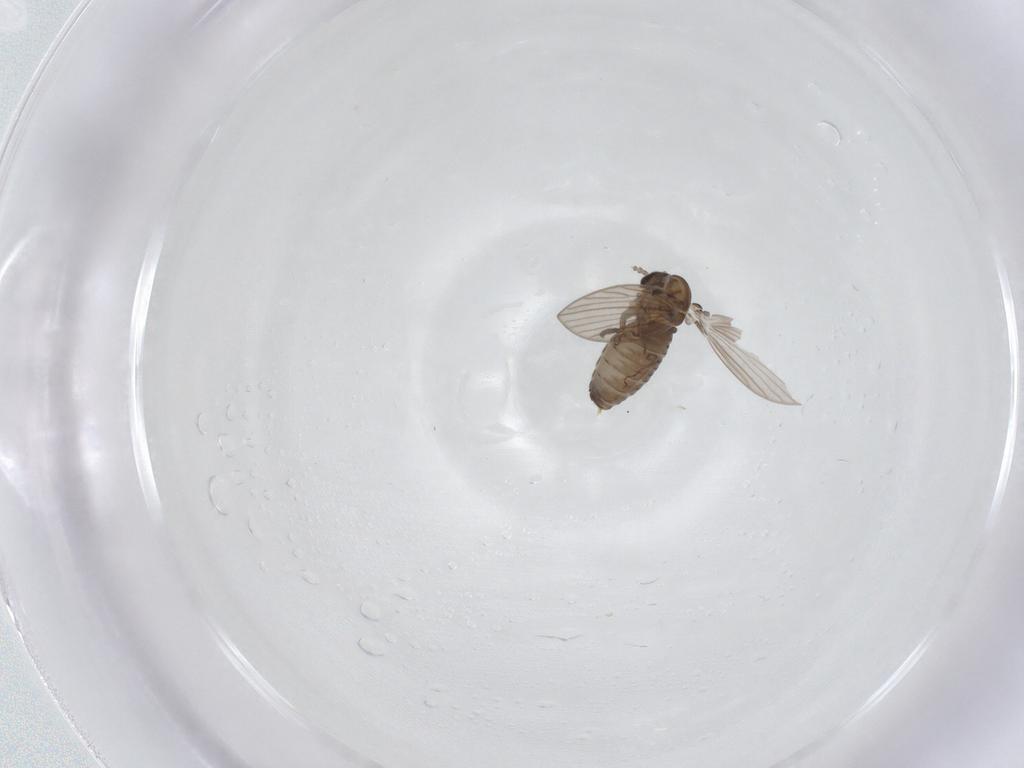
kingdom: Animalia
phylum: Arthropoda
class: Insecta
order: Diptera
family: Psychodidae
